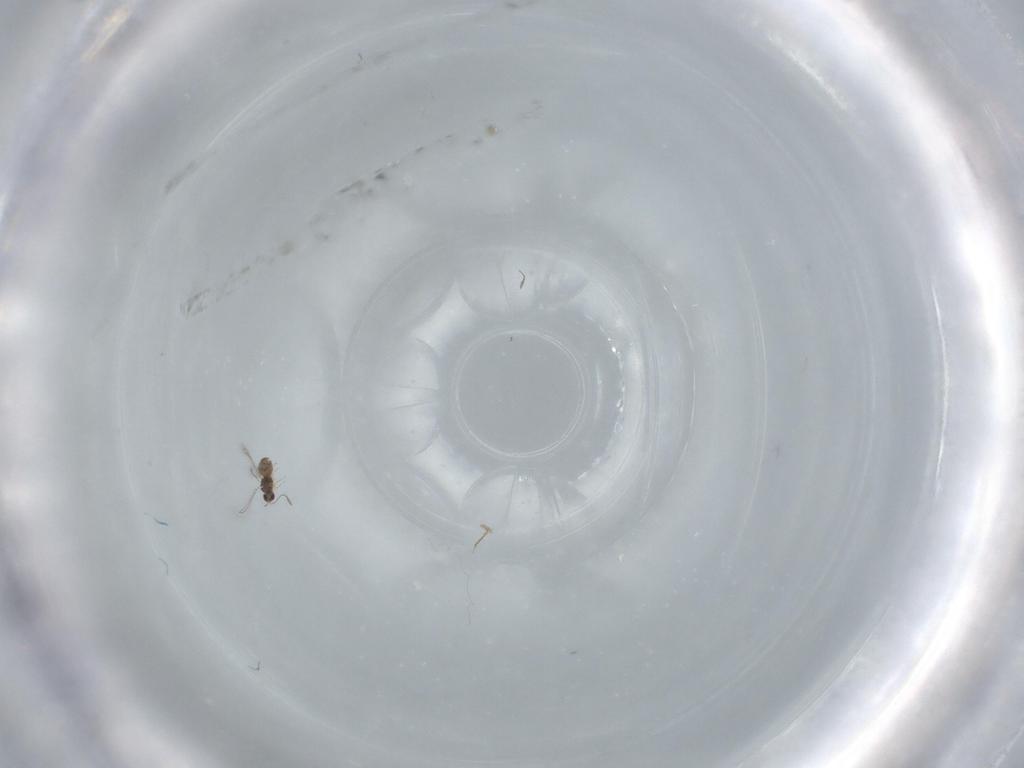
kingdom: Animalia
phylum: Arthropoda
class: Insecta
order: Hymenoptera
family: Mymaridae
